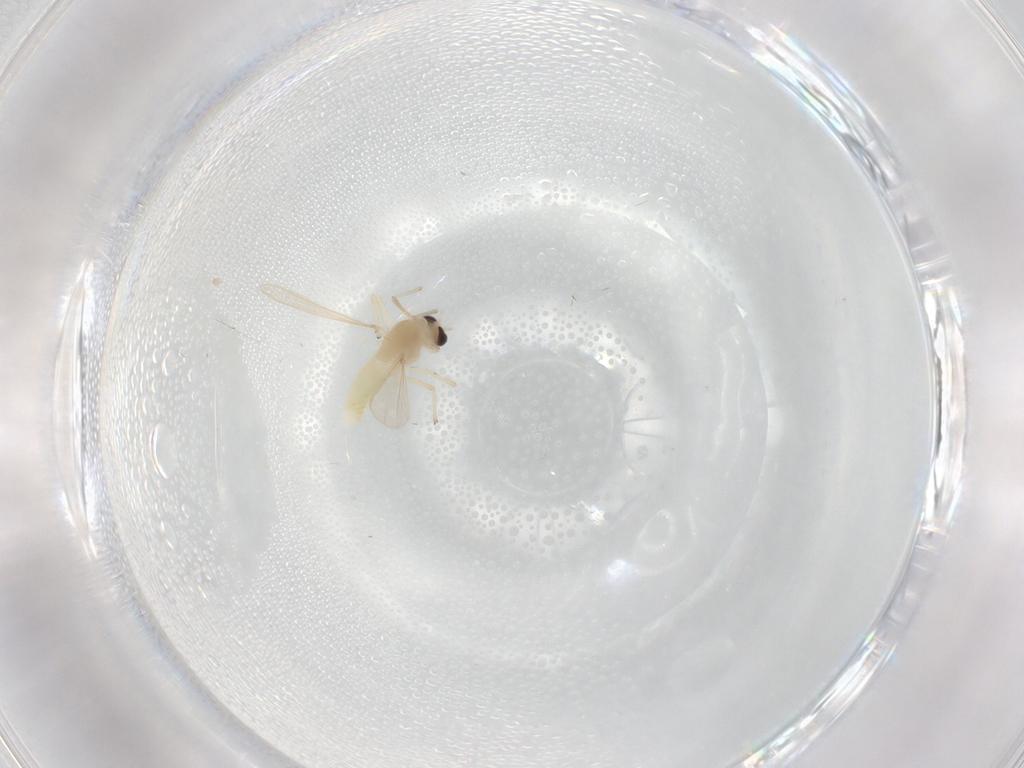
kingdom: Animalia
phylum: Arthropoda
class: Insecta
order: Diptera
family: Chironomidae
